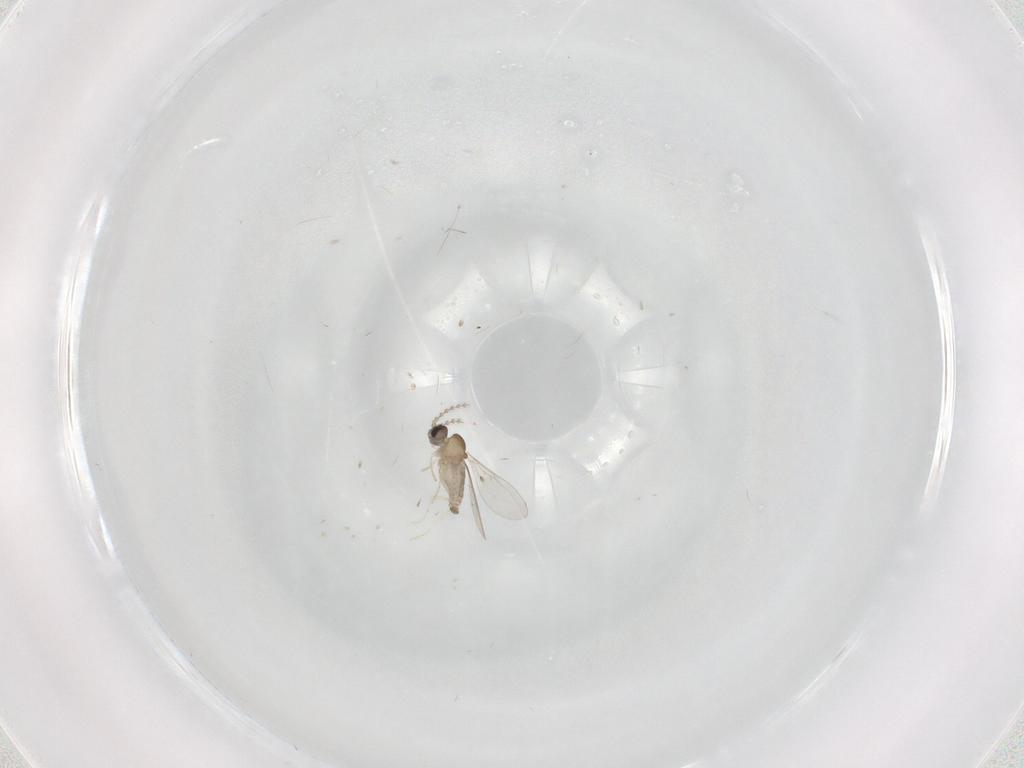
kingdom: Animalia
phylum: Arthropoda
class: Insecta
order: Diptera
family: Cecidomyiidae
